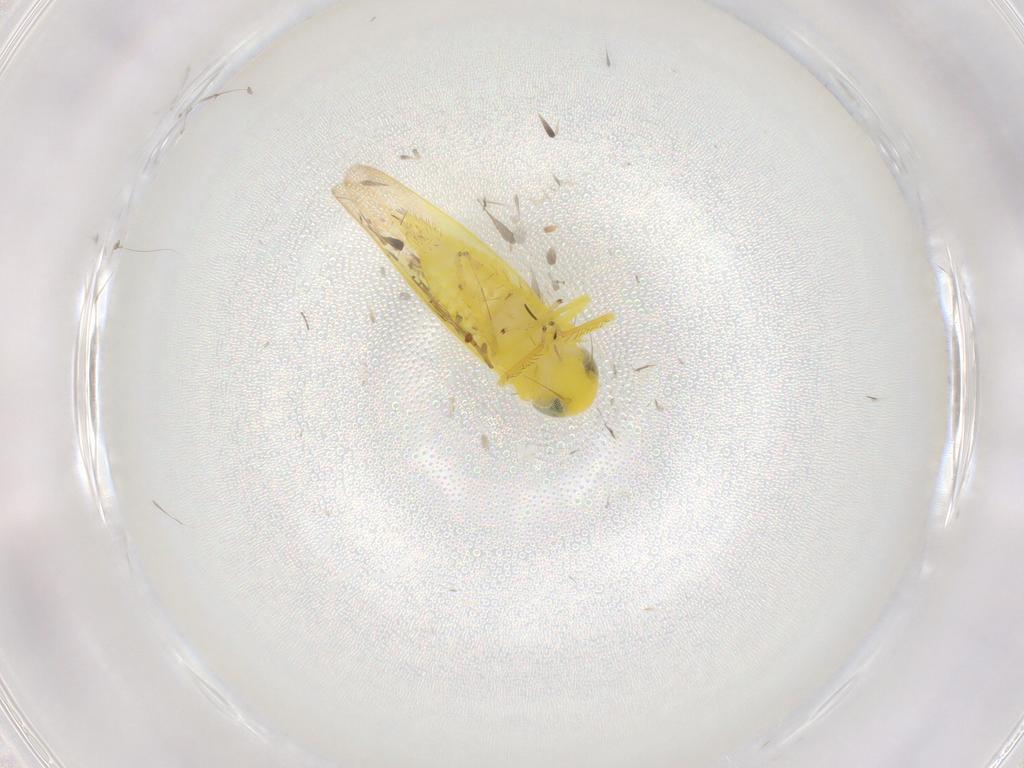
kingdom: Animalia
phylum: Arthropoda
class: Insecta
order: Hemiptera
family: Cicadellidae
